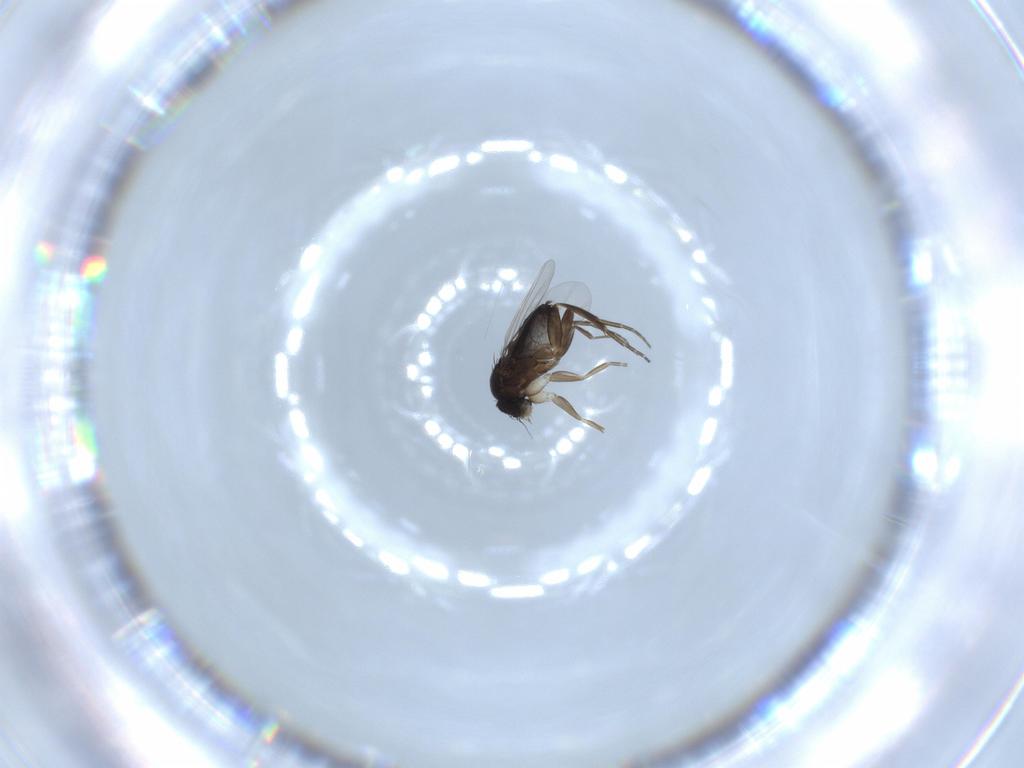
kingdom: Animalia
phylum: Arthropoda
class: Insecta
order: Diptera
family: Phoridae
